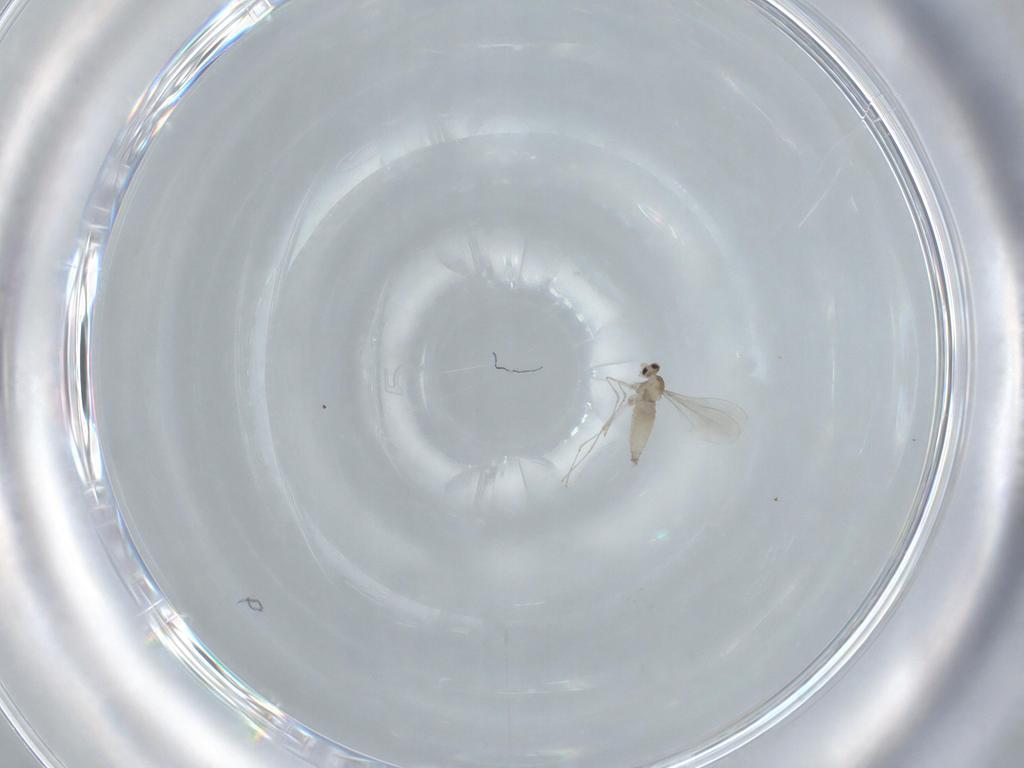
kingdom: Animalia
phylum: Arthropoda
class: Insecta
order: Diptera
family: Cecidomyiidae
